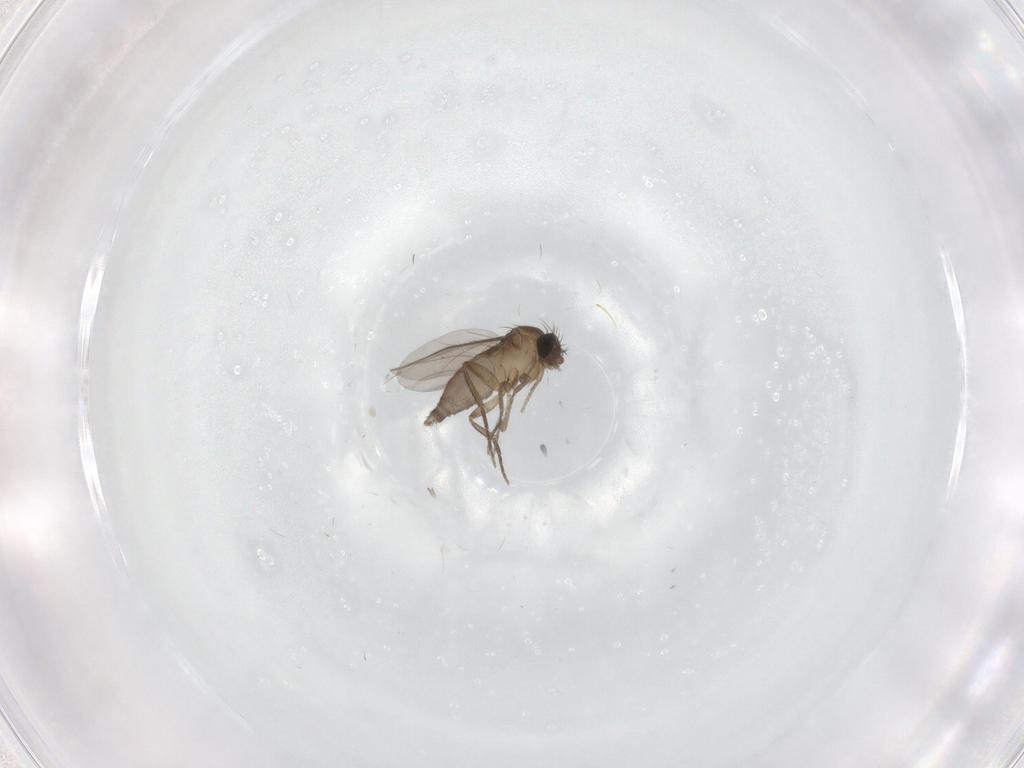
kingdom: Animalia
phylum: Arthropoda
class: Insecta
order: Diptera
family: Phoridae
